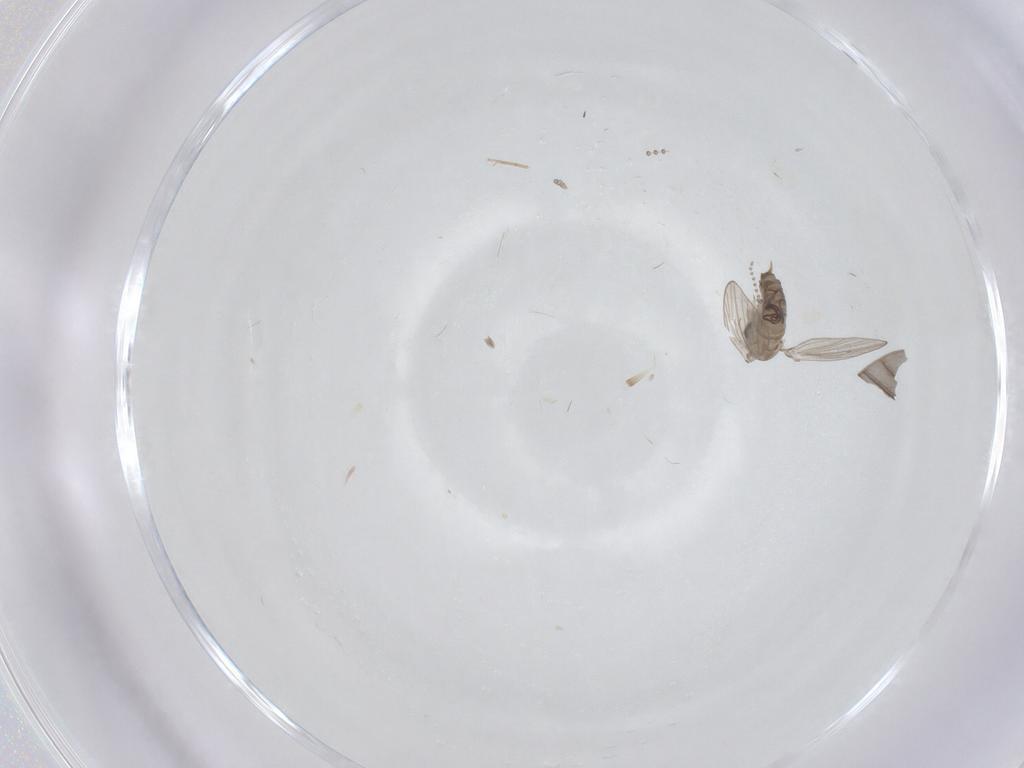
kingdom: Animalia
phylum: Arthropoda
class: Insecta
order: Diptera
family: Psychodidae
